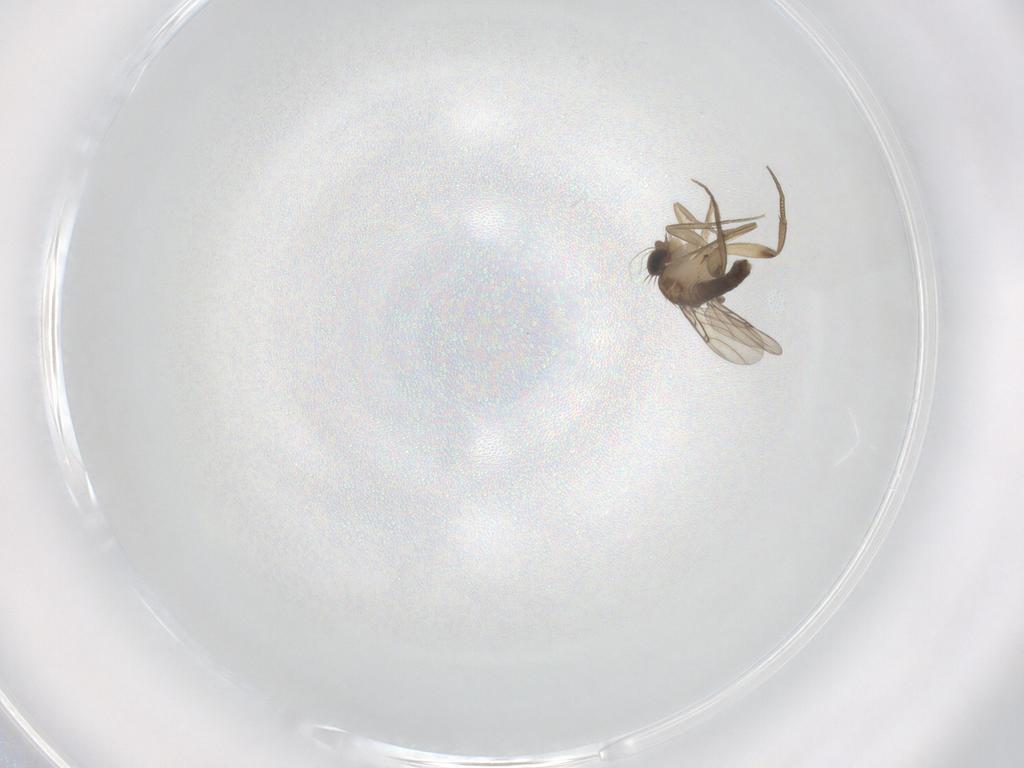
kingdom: Animalia
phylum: Arthropoda
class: Insecta
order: Diptera
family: Phoridae
